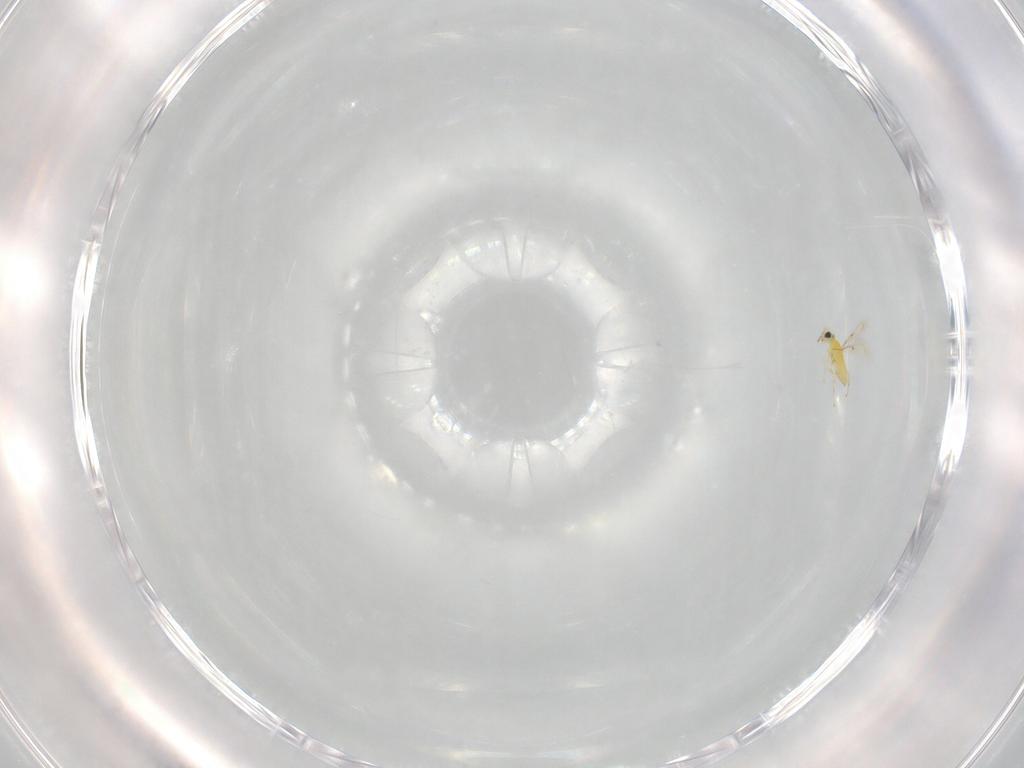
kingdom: Animalia
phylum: Arthropoda
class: Insecta
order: Hymenoptera
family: Trichogrammatidae
